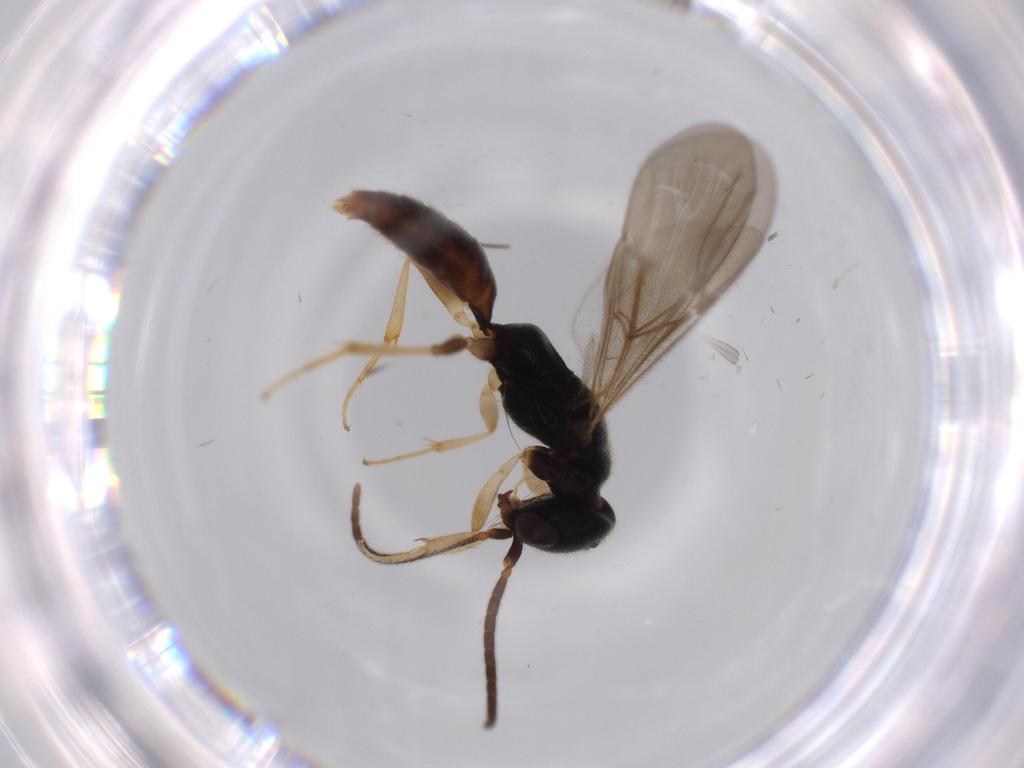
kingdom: Animalia
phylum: Arthropoda
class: Insecta
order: Hymenoptera
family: Bethylidae
